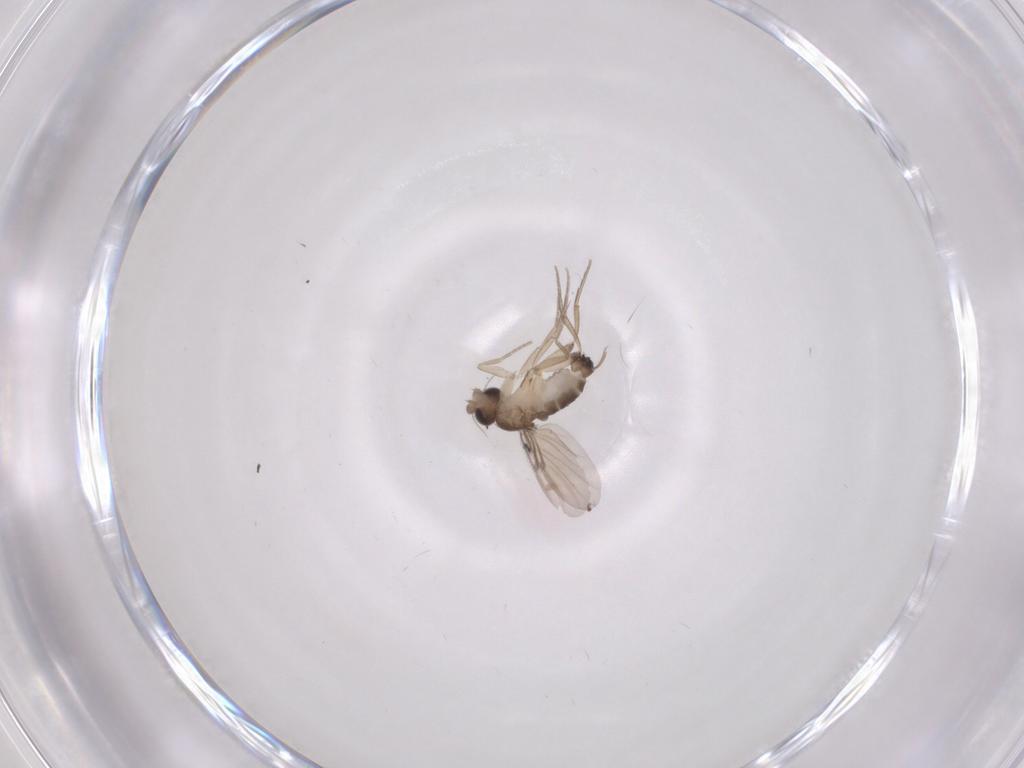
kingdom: Animalia
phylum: Arthropoda
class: Insecta
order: Diptera
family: Phoridae
